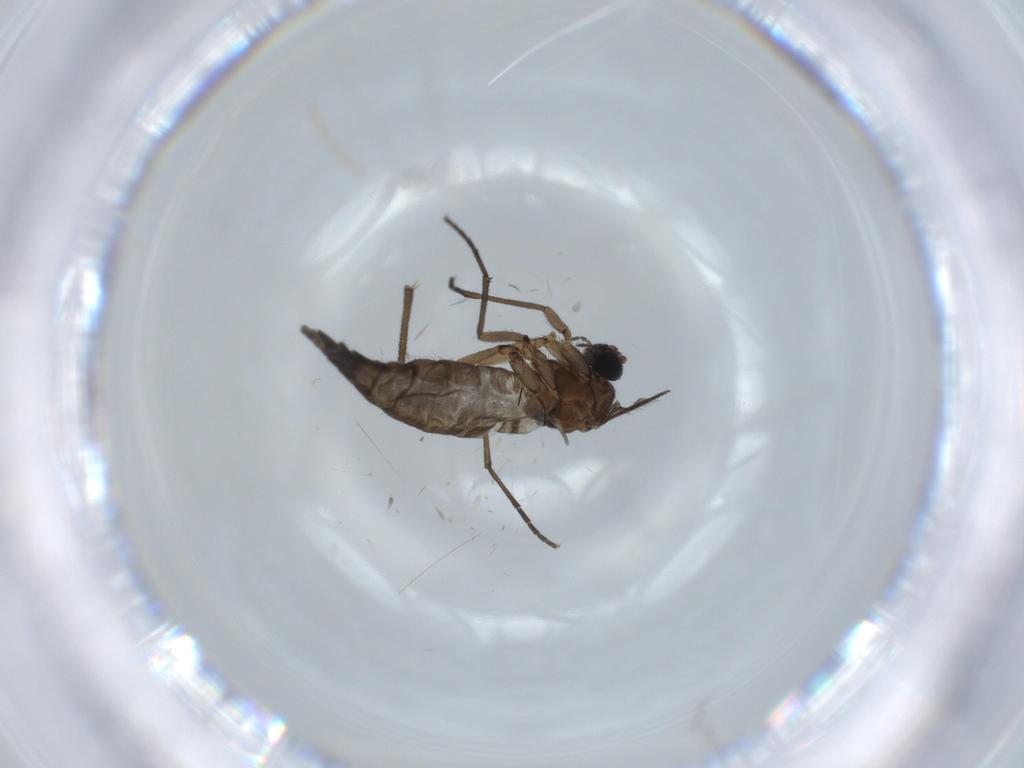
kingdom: Animalia
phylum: Arthropoda
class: Insecta
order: Diptera
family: Sciaridae
